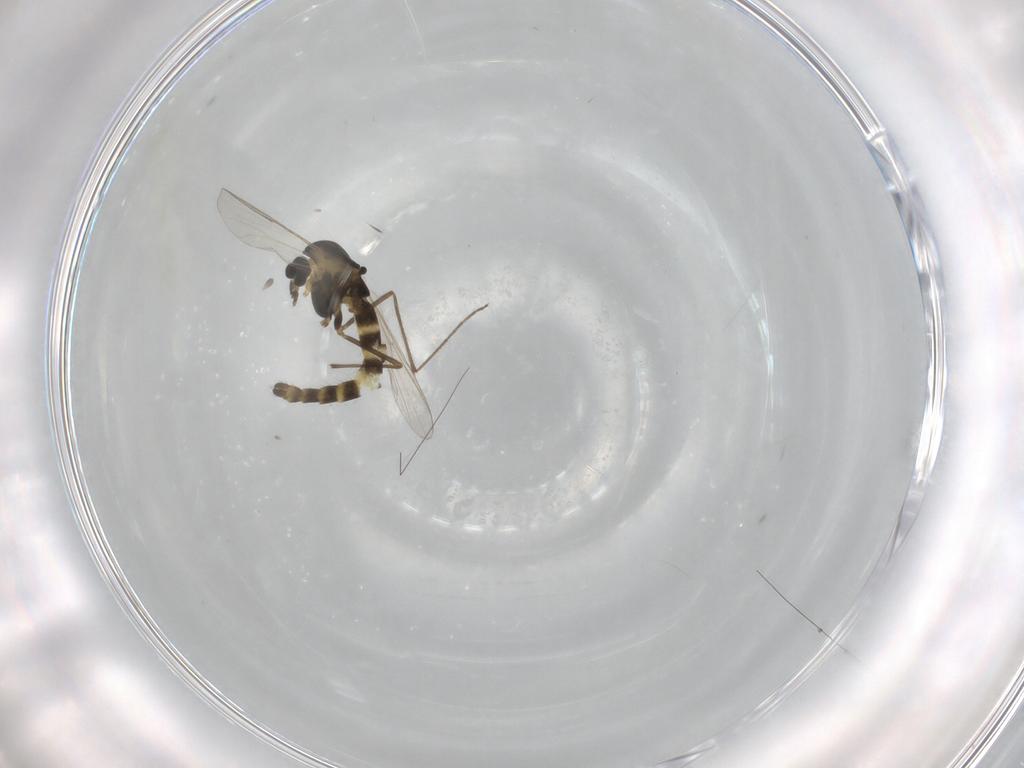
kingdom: Animalia
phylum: Arthropoda
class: Insecta
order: Diptera
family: Chironomidae
